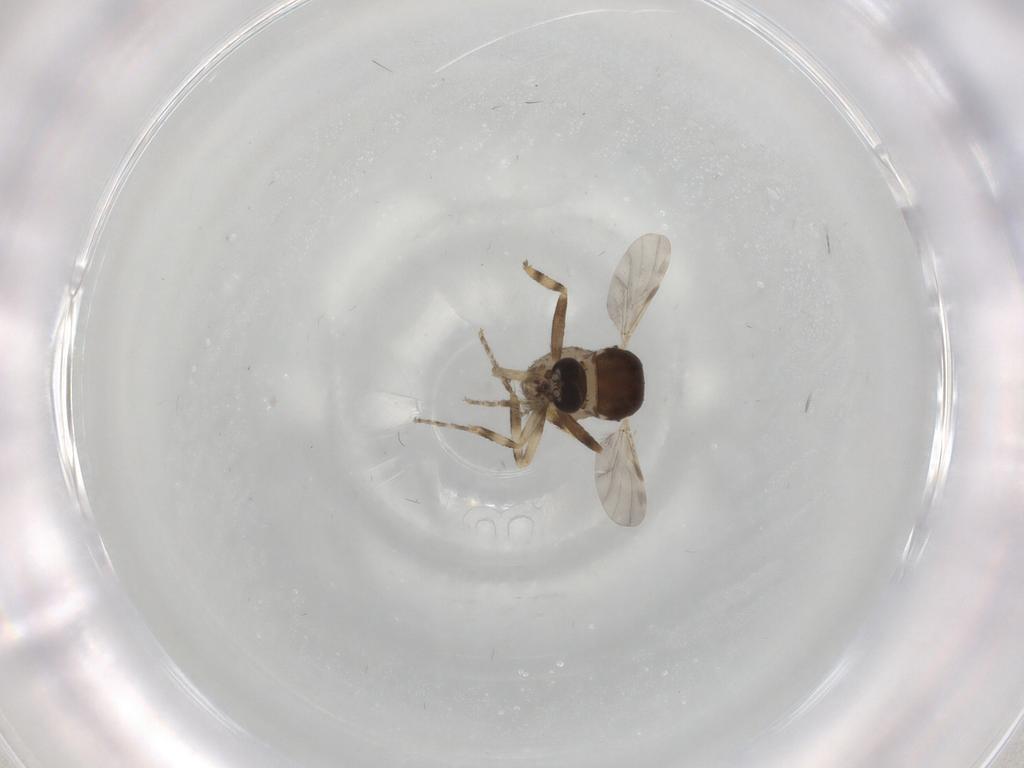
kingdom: Animalia
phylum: Arthropoda
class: Insecta
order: Diptera
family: Ceratopogonidae
